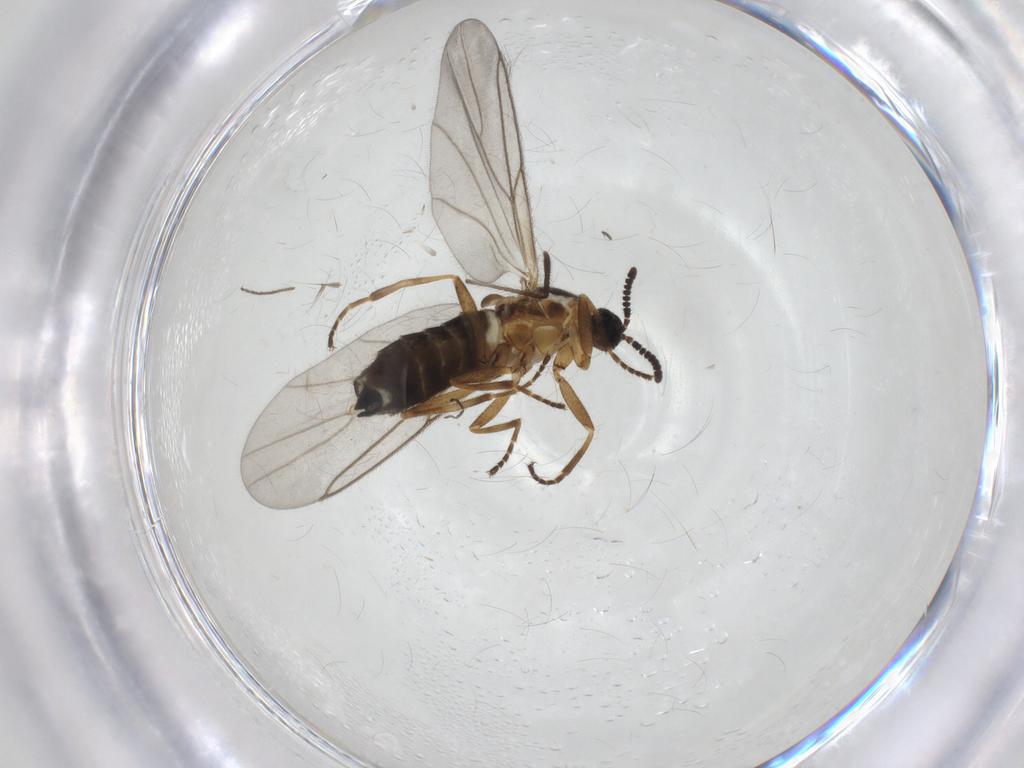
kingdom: Animalia
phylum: Arthropoda
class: Insecta
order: Diptera
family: Scatopsidae
